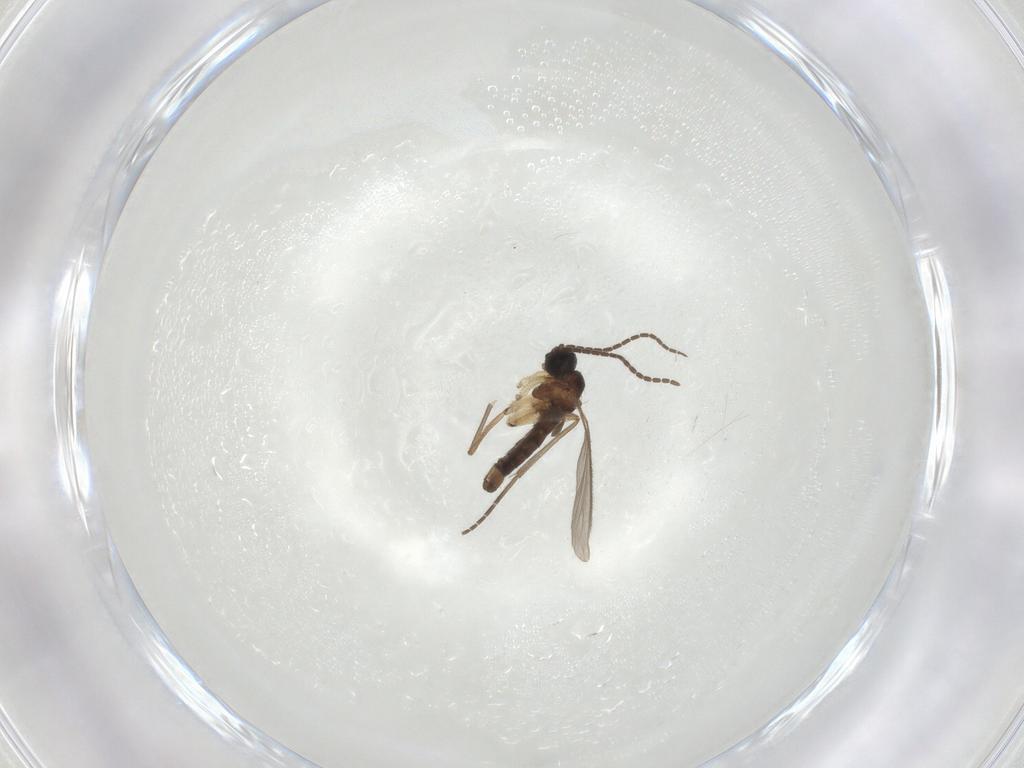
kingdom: Animalia
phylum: Arthropoda
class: Insecta
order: Diptera
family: Sciaridae
